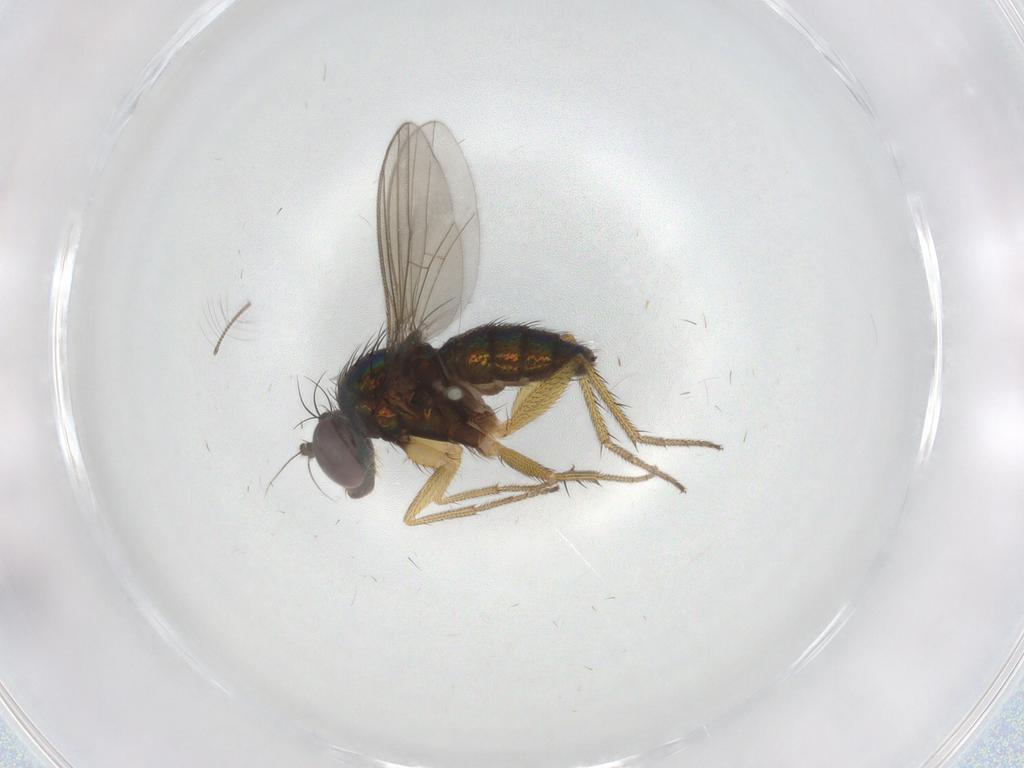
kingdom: Animalia
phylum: Arthropoda
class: Insecta
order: Diptera
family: Chironomidae
